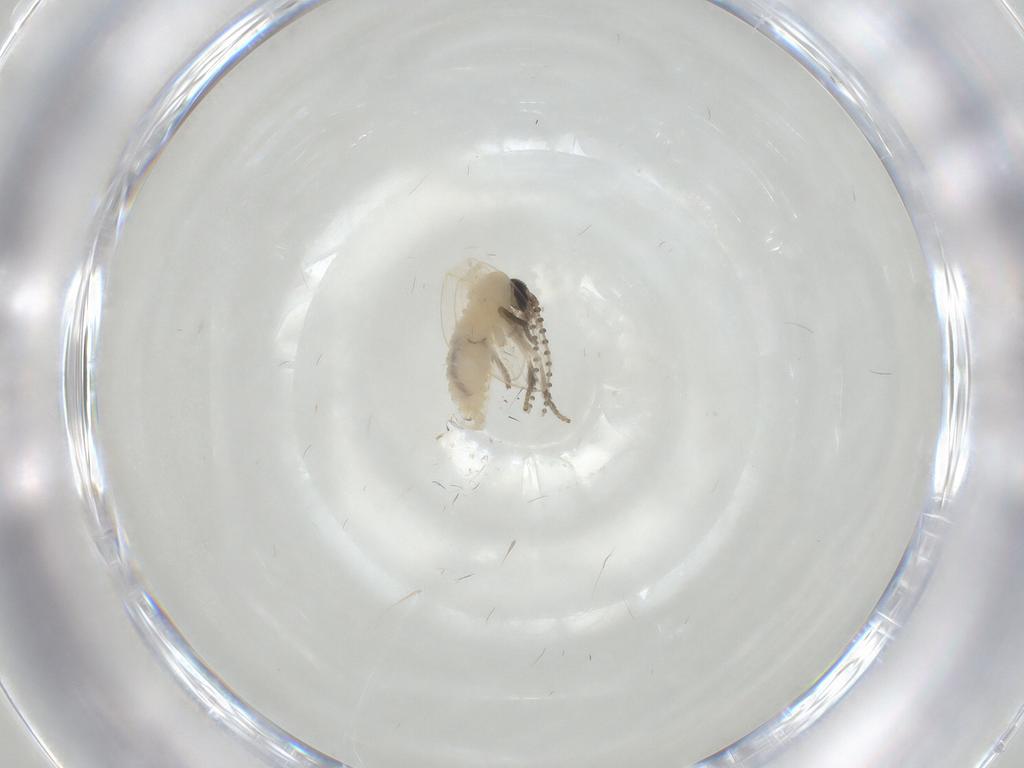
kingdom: Animalia
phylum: Arthropoda
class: Insecta
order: Diptera
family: Psychodidae
